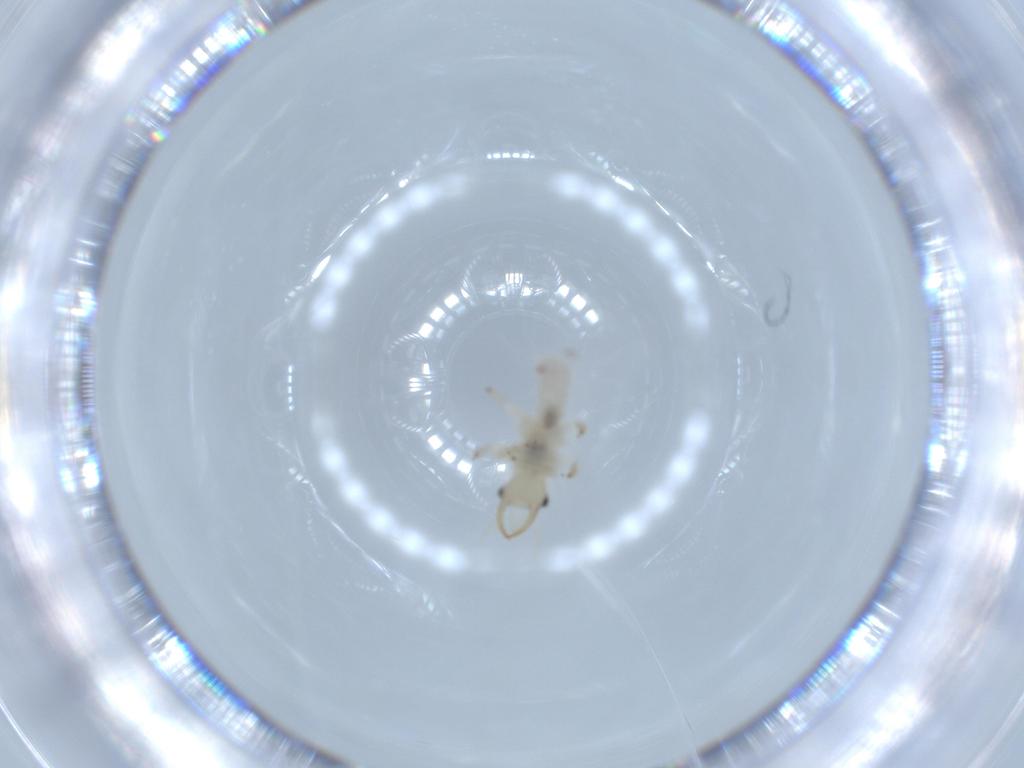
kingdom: Animalia
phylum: Arthropoda
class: Insecta
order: Neuroptera
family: Chrysopidae
